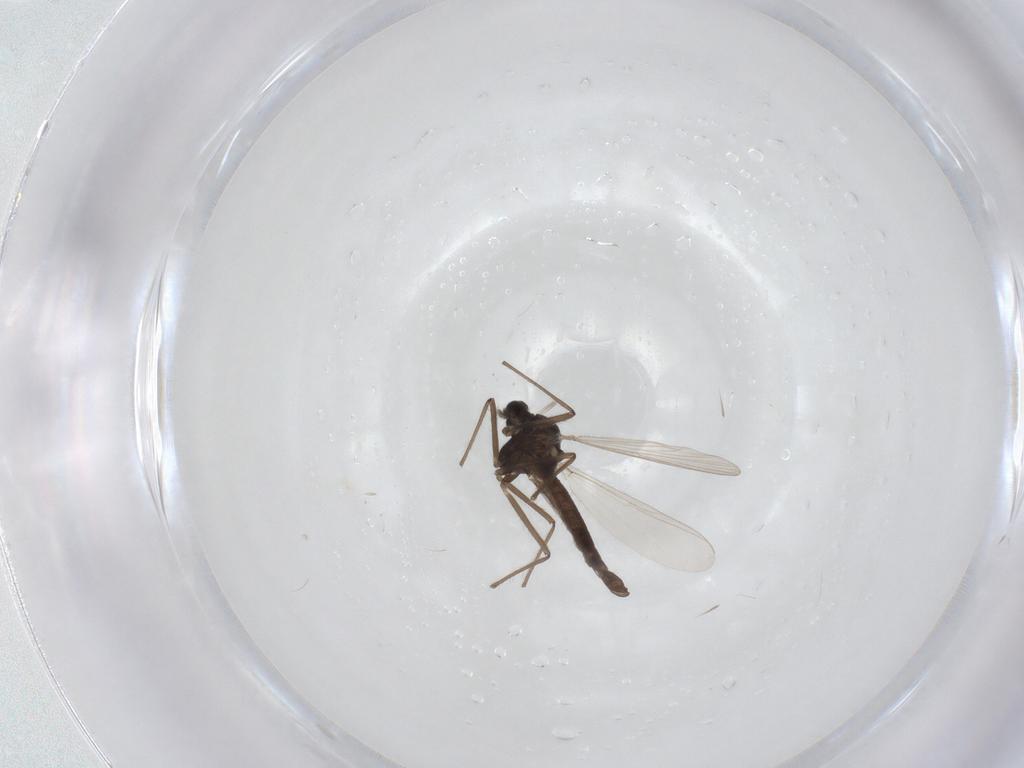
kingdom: Animalia
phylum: Arthropoda
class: Insecta
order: Diptera
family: Chironomidae
